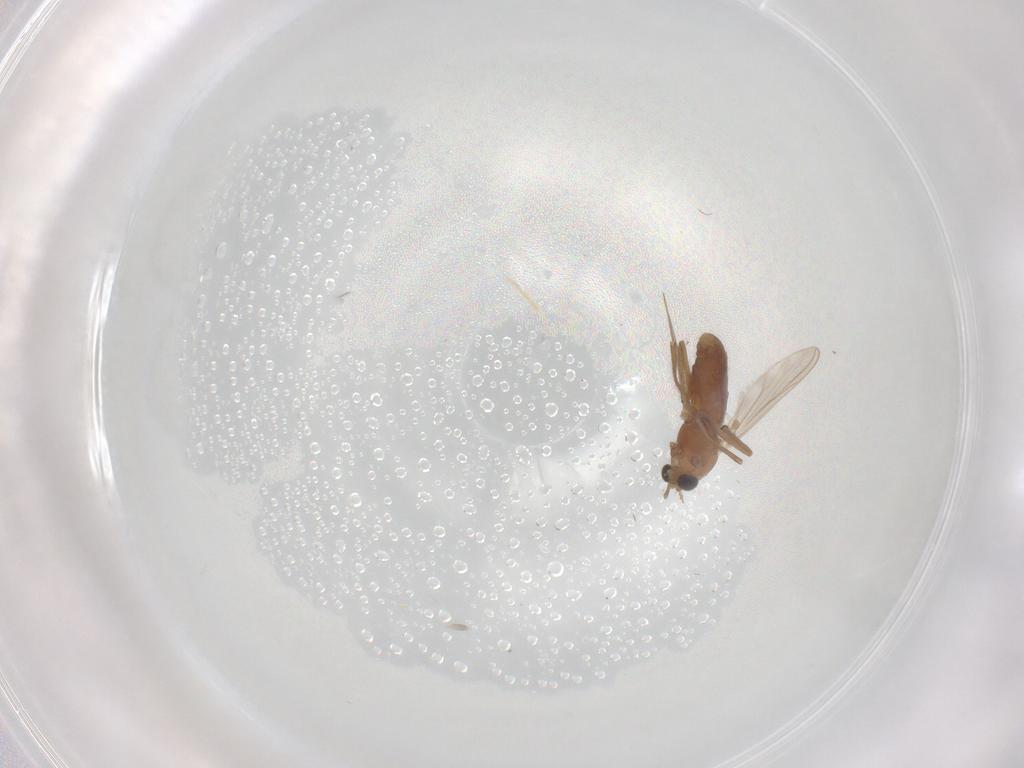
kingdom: Animalia
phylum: Arthropoda
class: Insecta
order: Diptera
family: Chironomidae
